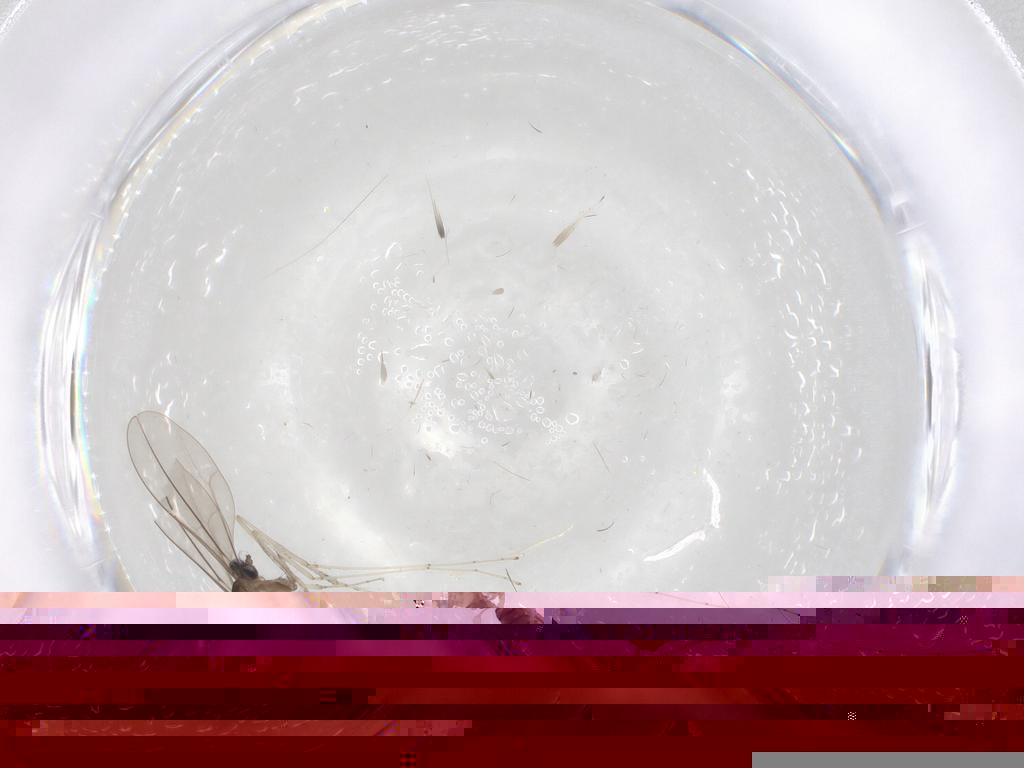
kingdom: Animalia
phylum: Arthropoda
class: Insecta
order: Diptera
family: Cecidomyiidae
